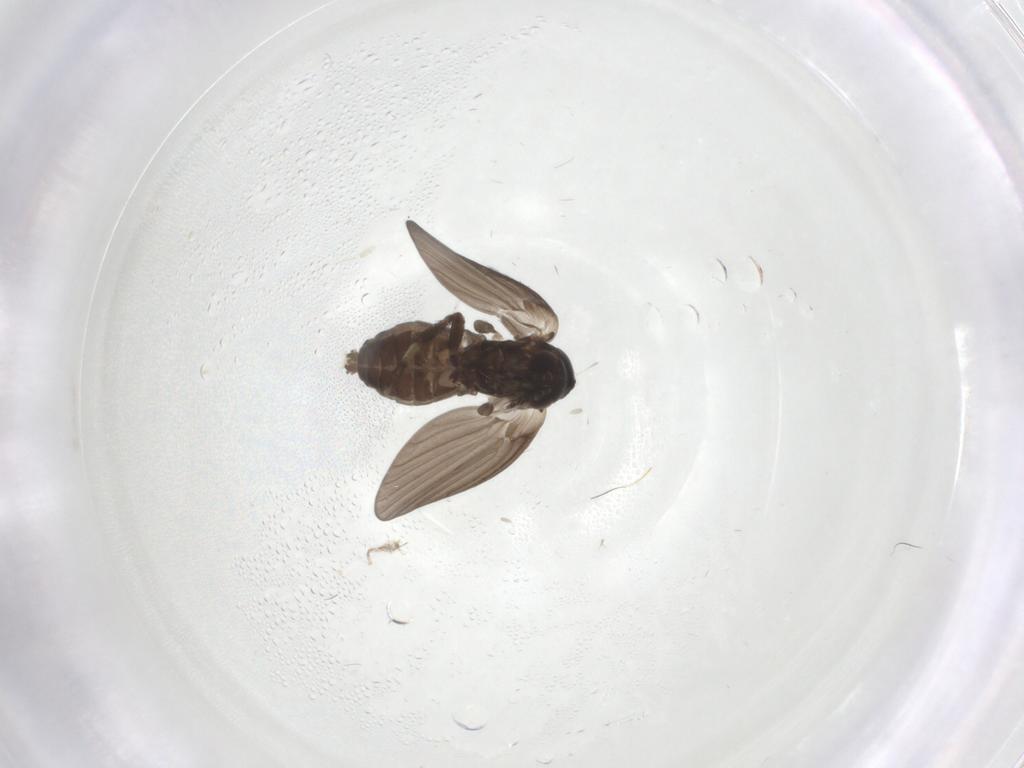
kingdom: Animalia
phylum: Arthropoda
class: Insecta
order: Diptera
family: Psychodidae
